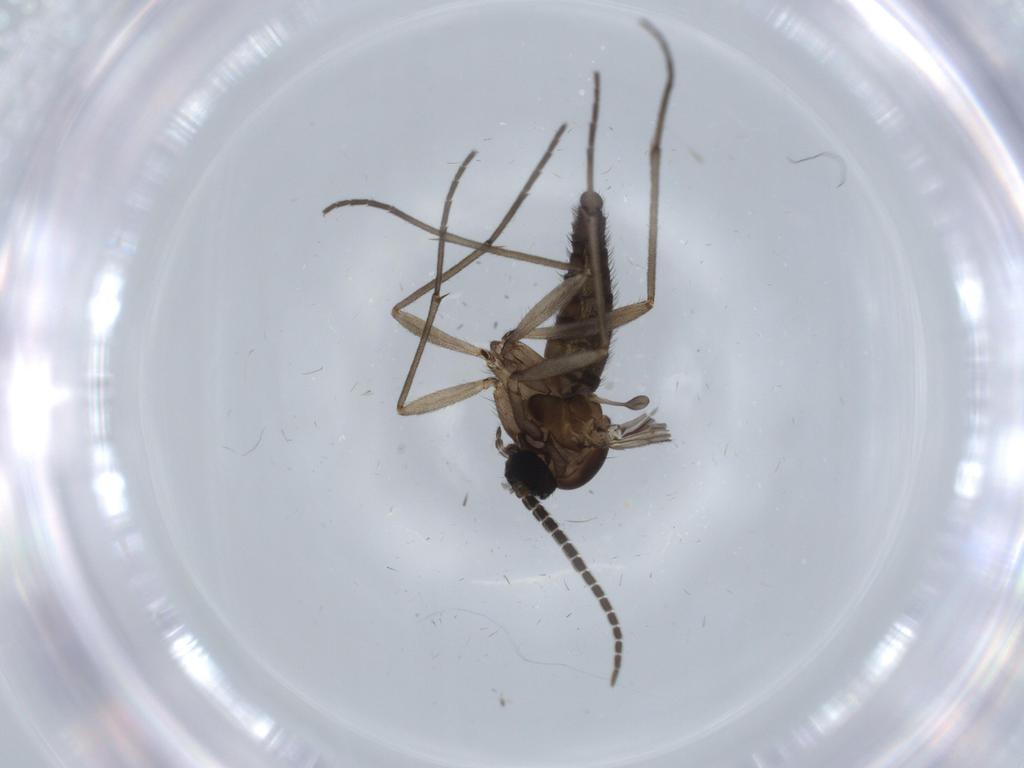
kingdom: Animalia
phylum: Arthropoda
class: Insecta
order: Diptera
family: Sciaridae
